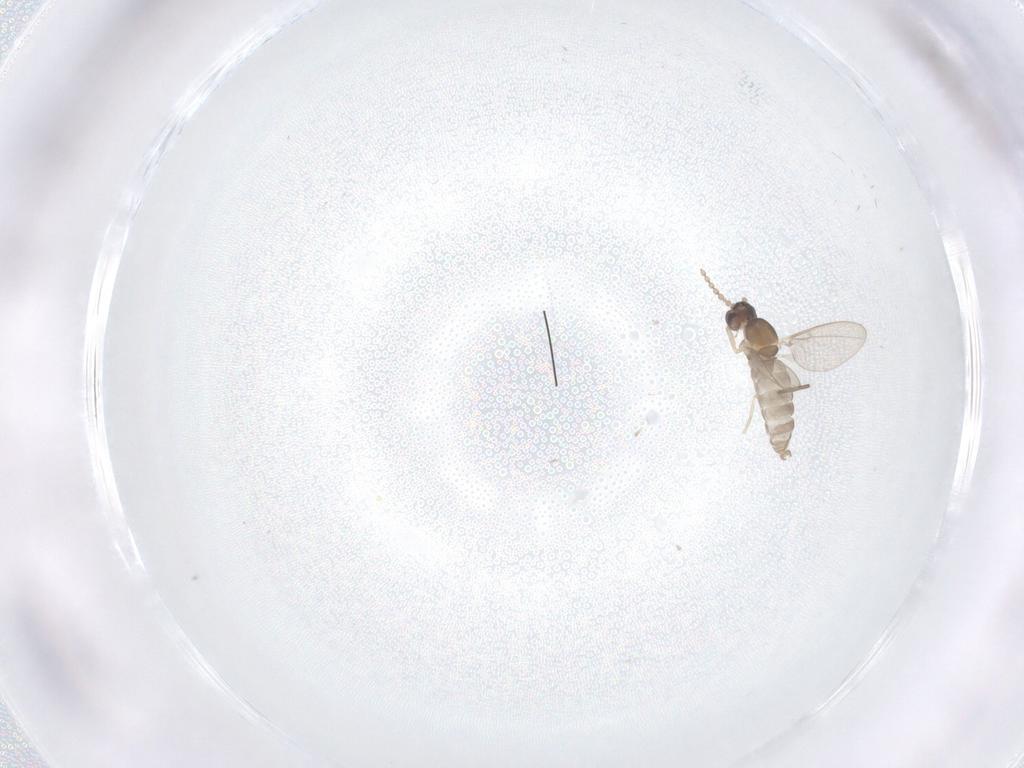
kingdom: Animalia
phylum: Arthropoda
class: Insecta
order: Diptera
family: Cecidomyiidae
